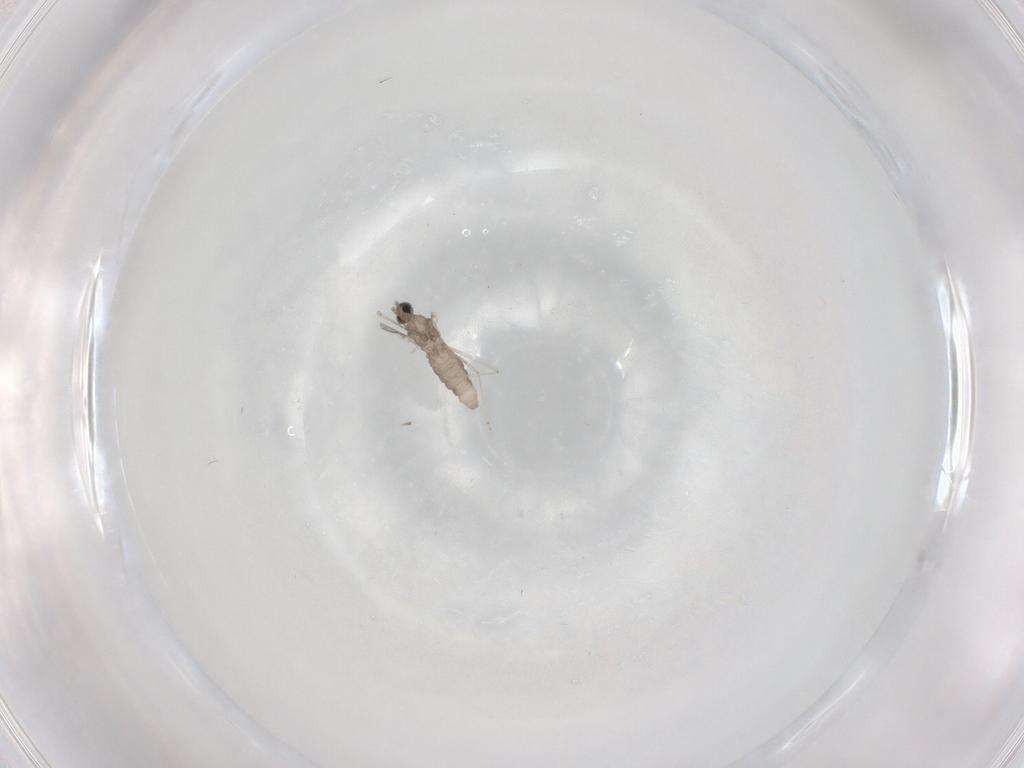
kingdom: Animalia
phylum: Arthropoda
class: Insecta
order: Diptera
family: Cecidomyiidae
